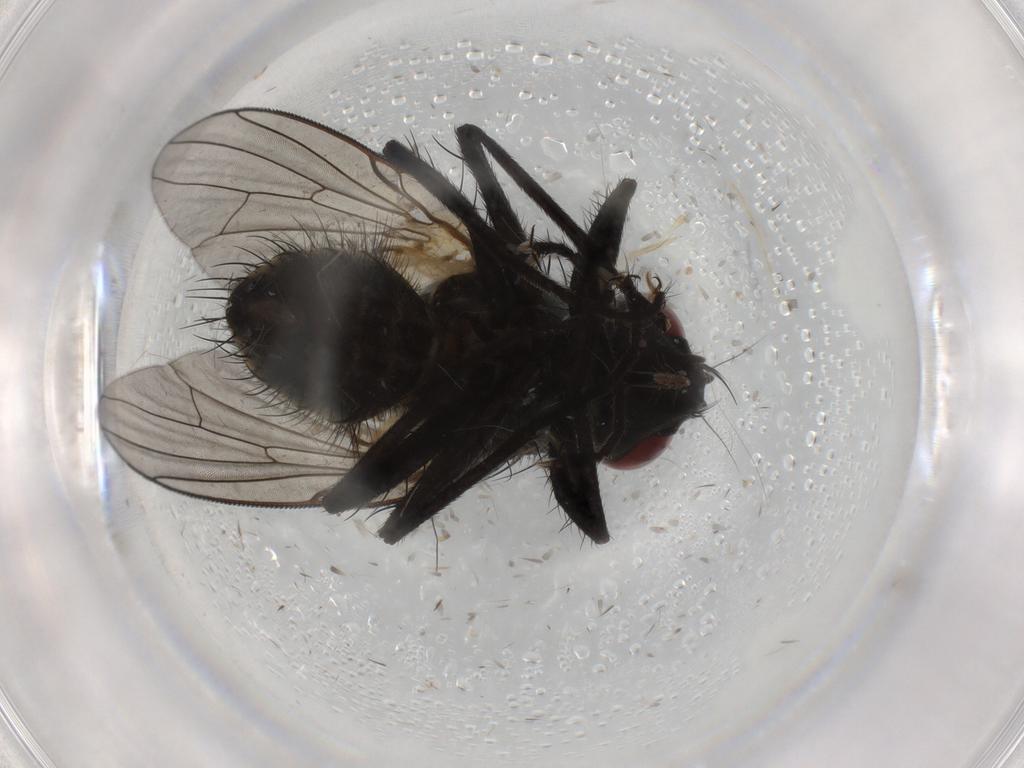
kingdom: Animalia
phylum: Arthropoda
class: Insecta
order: Diptera
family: Muscidae
